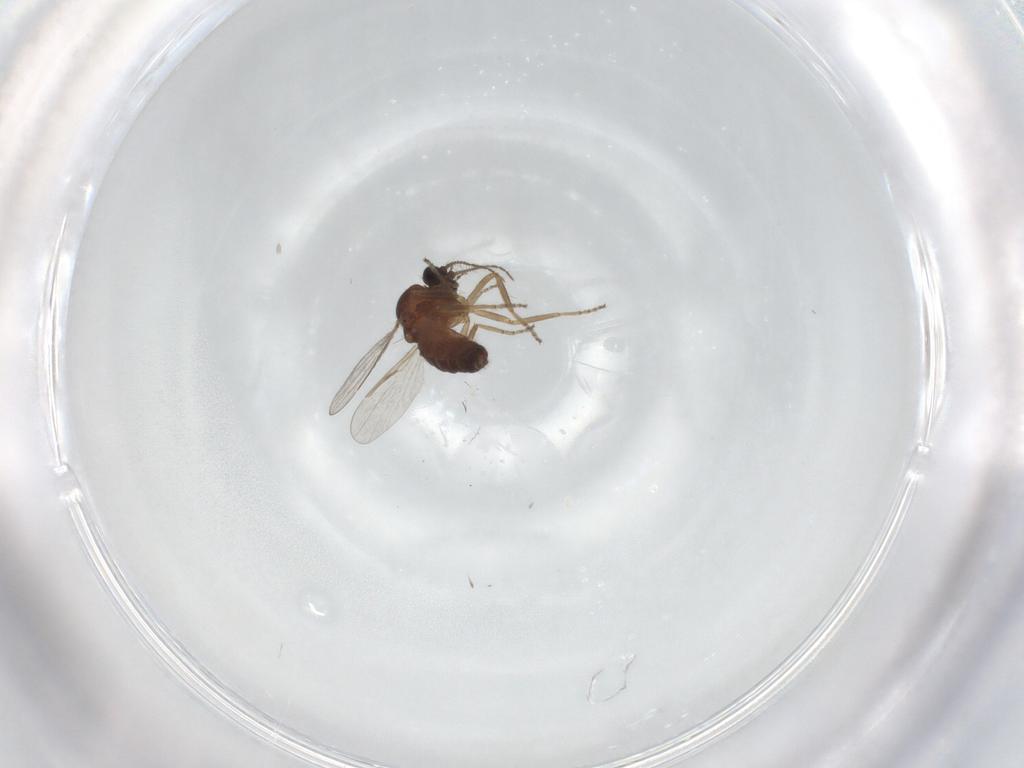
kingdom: Animalia
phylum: Arthropoda
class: Insecta
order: Diptera
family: Ceratopogonidae
